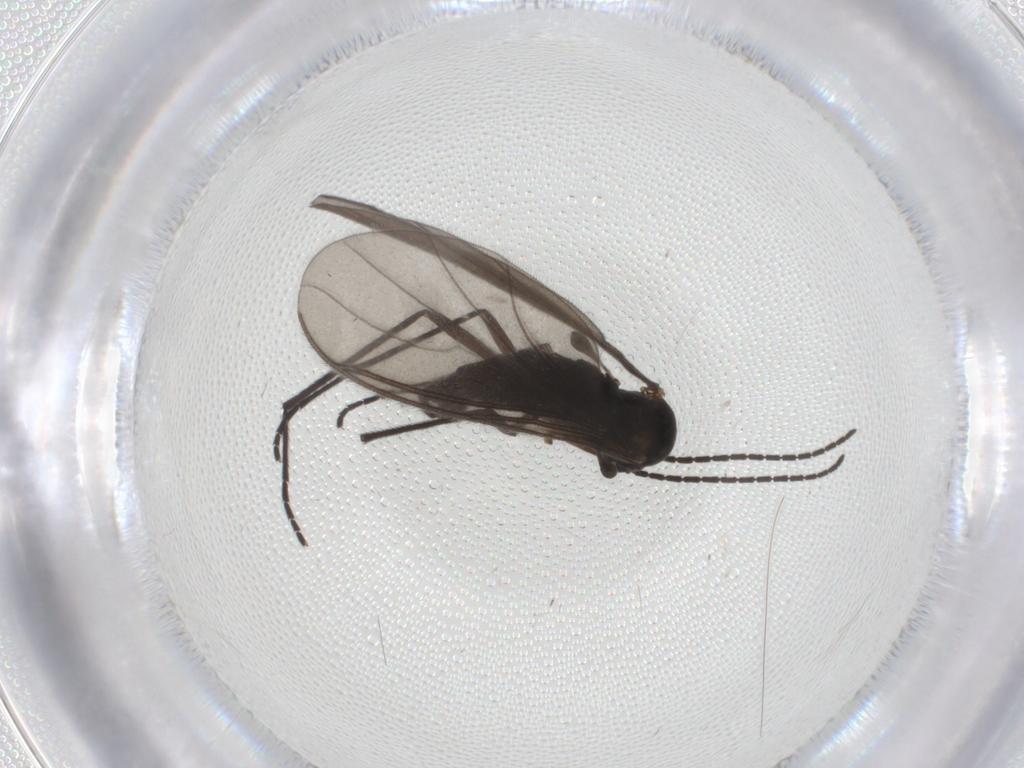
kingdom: Animalia
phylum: Arthropoda
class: Insecta
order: Diptera
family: Sciaridae
